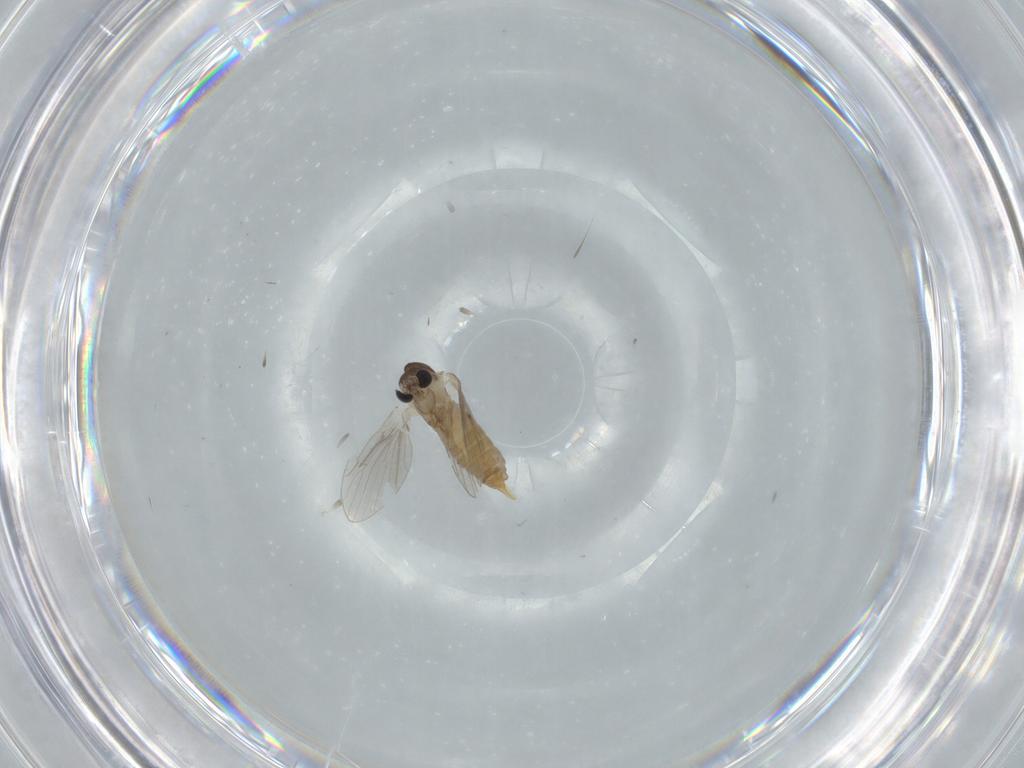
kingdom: Animalia
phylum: Arthropoda
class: Insecta
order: Diptera
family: Psychodidae
